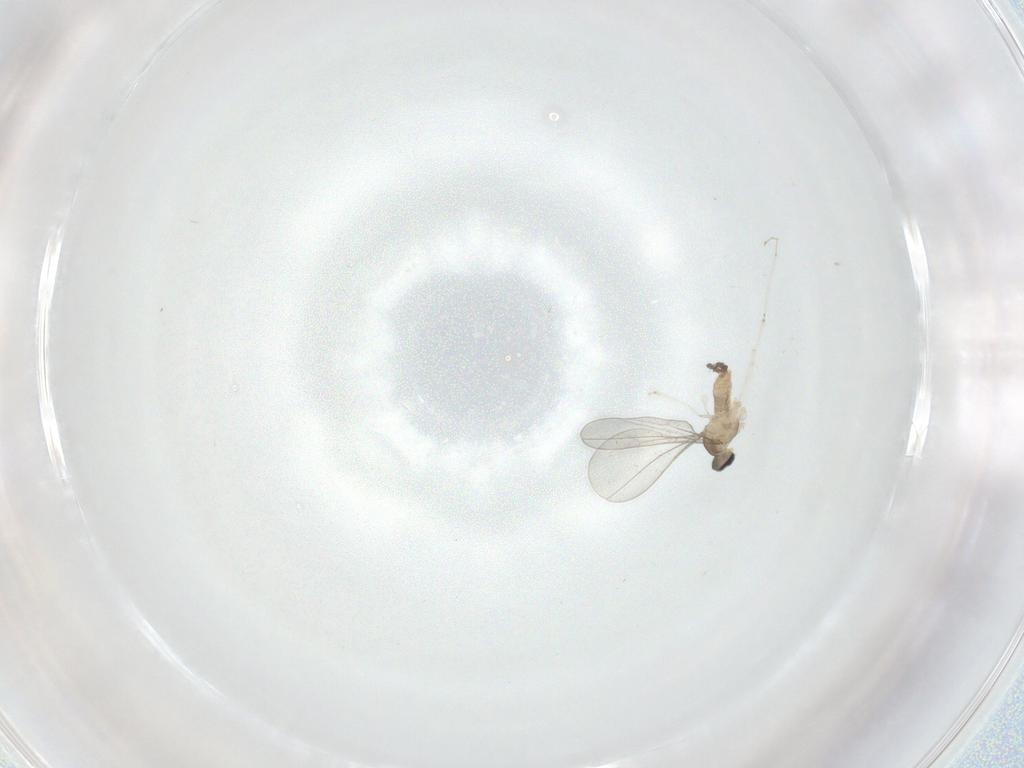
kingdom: Animalia
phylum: Arthropoda
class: Insecta
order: Diptera
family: Cecidomyiidae
